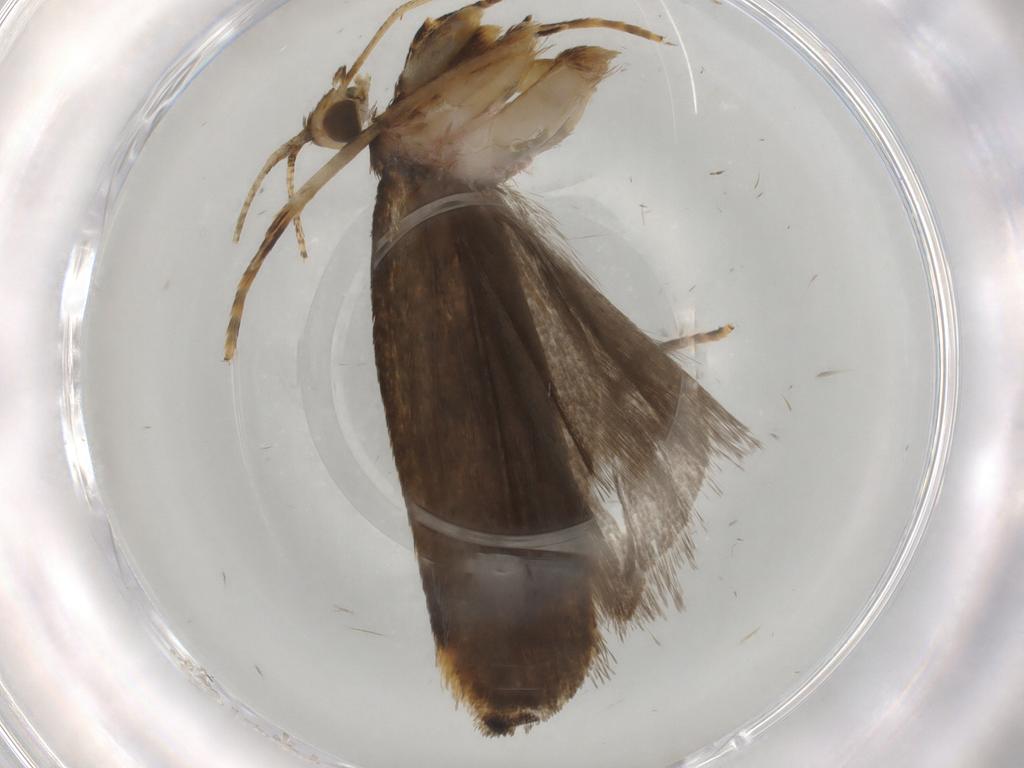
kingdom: Animalia
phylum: Arthropoda
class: Insecta
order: Lepidoptera
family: Autostichidae
